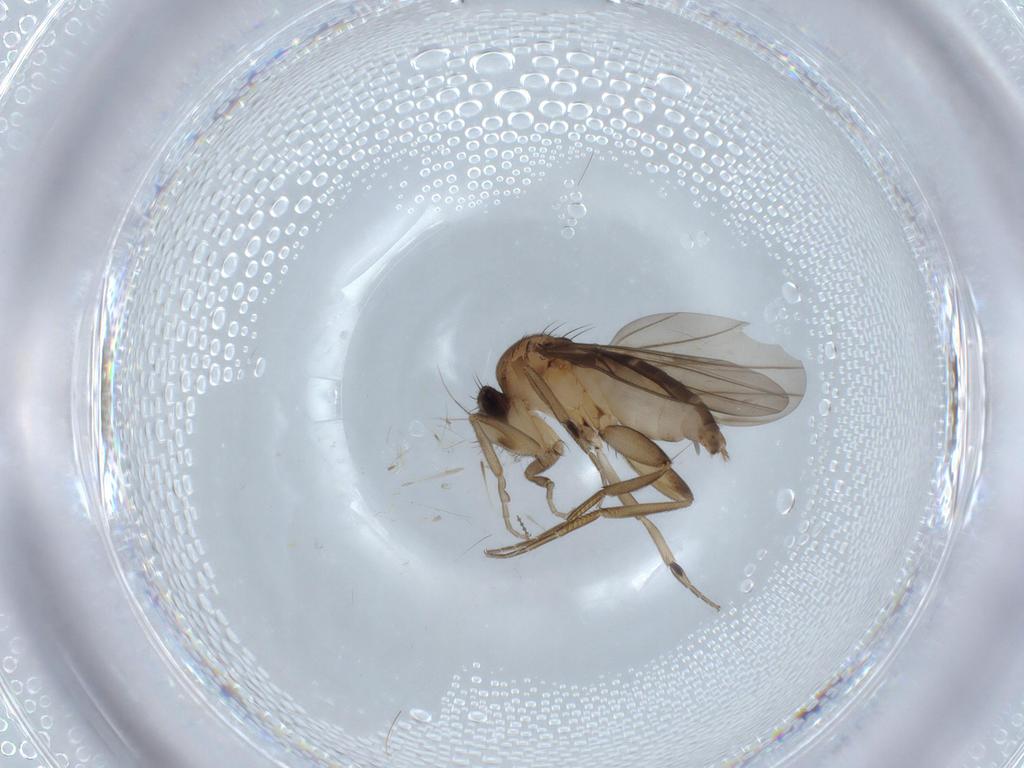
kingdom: Animalia
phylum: Arthropoda
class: Insecta
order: Diptera
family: Phoridae
